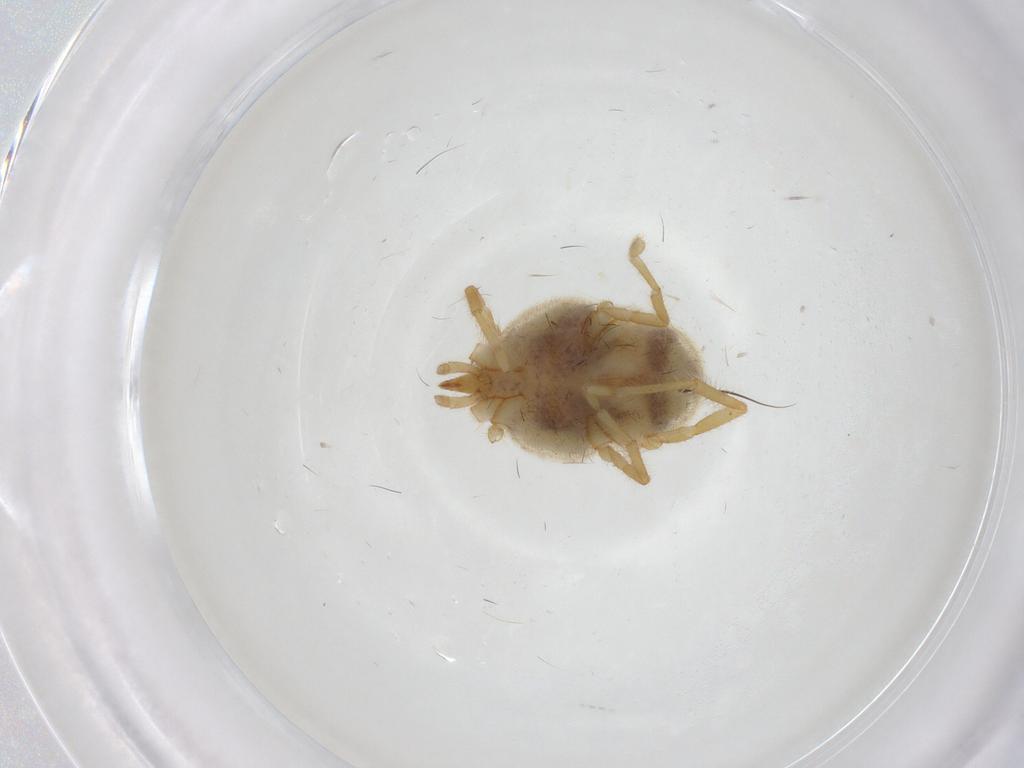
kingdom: Animalia
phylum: Arthropoda
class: Arachnida
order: Trombidiformes
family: Erythraeidae
